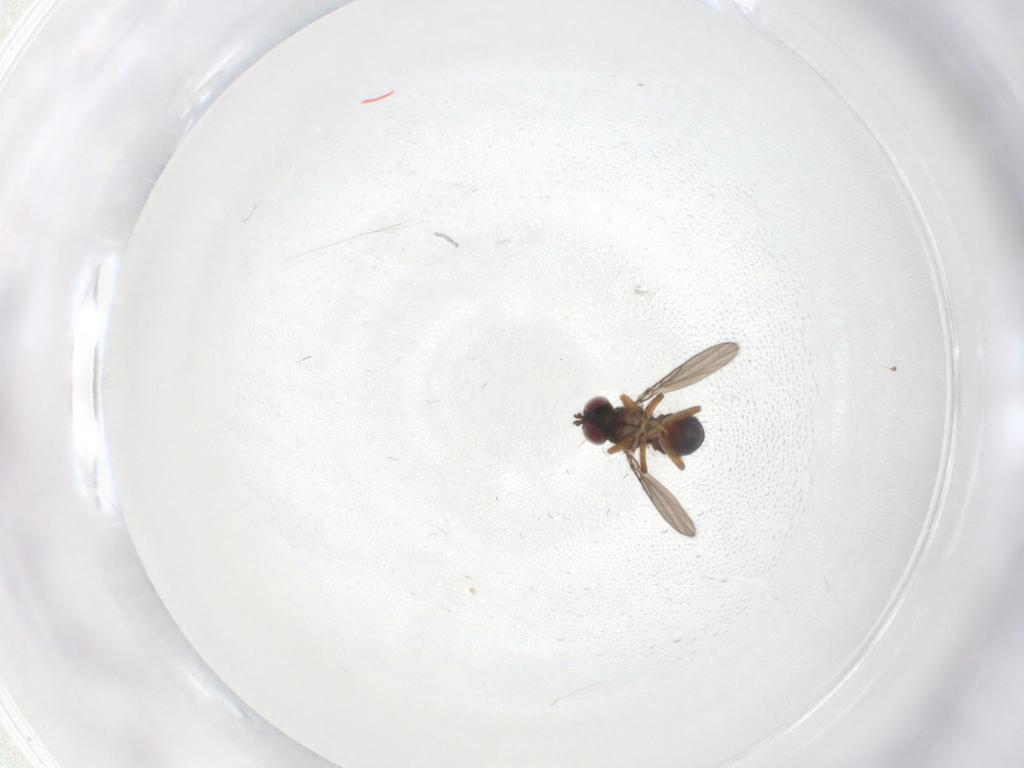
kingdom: Animalia
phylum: Arthropoda
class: Insecta
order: Diptera
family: Ephydridae
